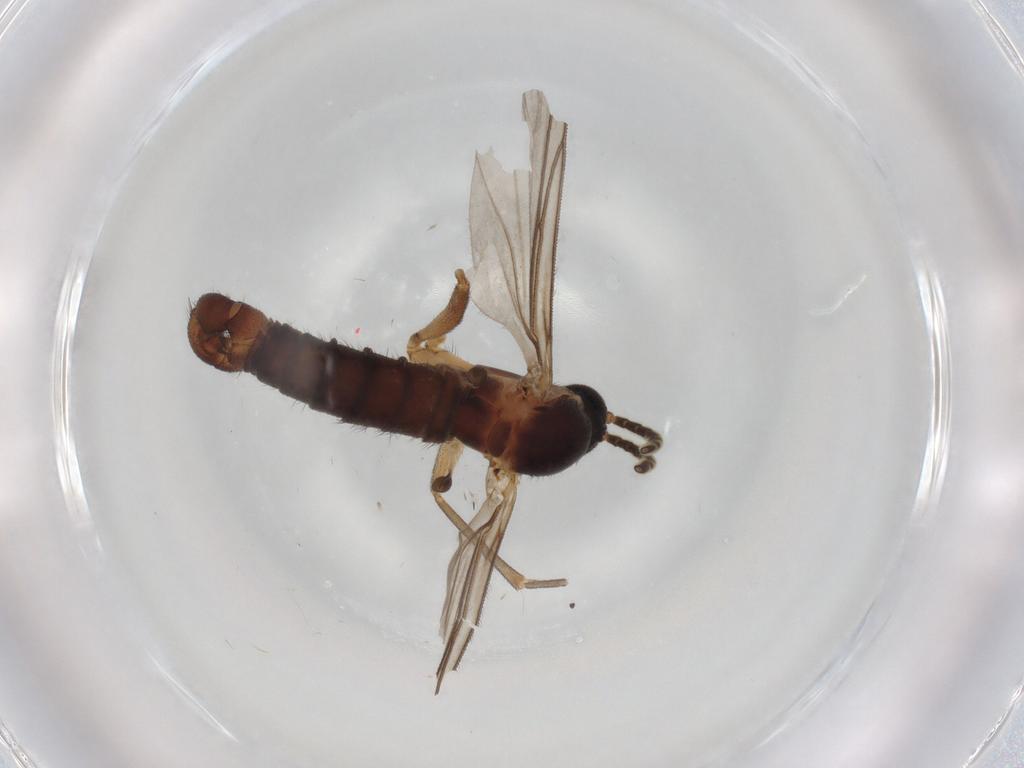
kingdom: Animalia
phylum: Arthropoda
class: Insecta
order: Diptera
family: Sciaridae
